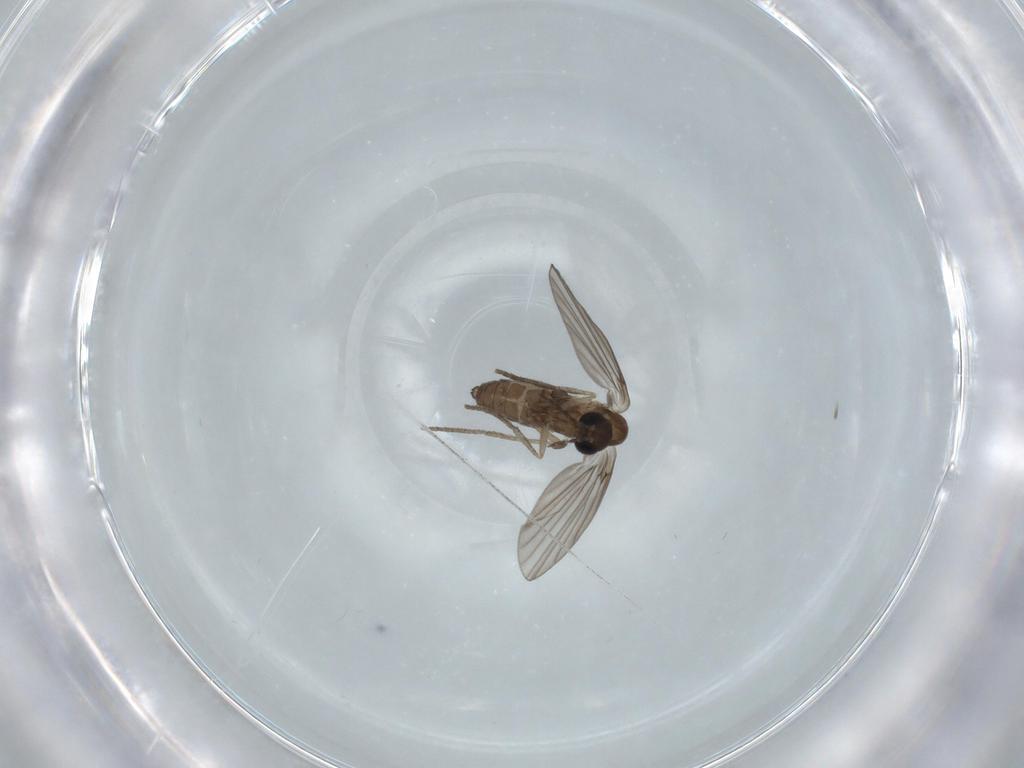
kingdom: Animalia
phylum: Arthropoda
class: Insecta
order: Diptera
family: Psychodidae
